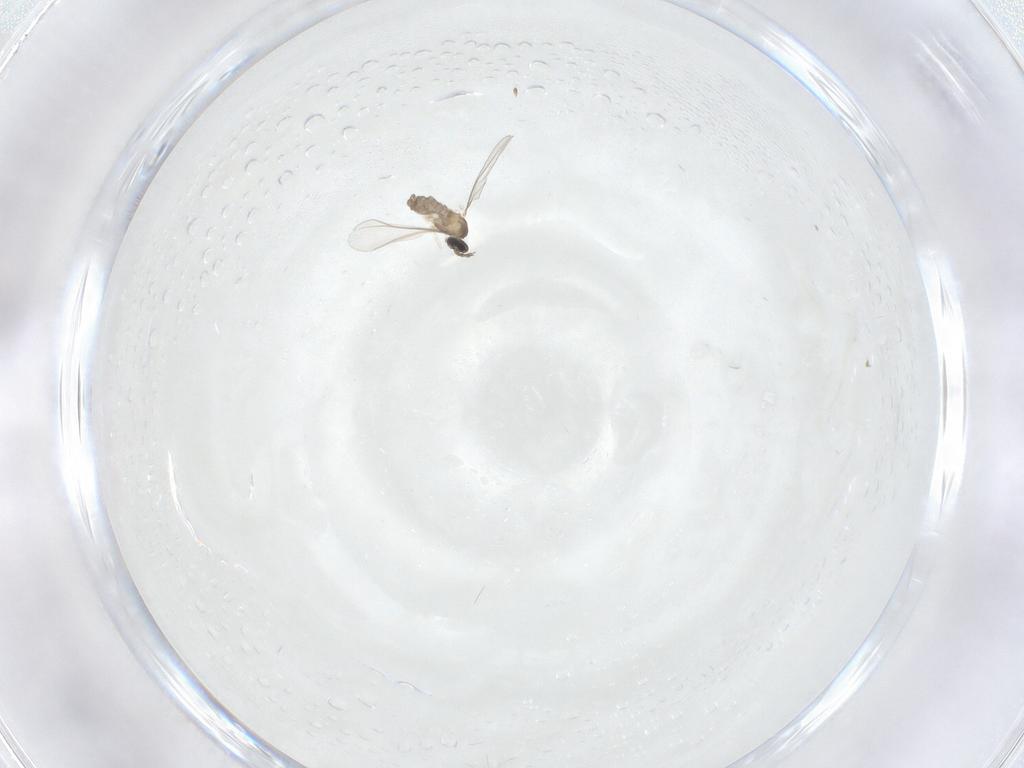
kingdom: Animalia
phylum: Arthropoda
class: Insecta
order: Diptera
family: Cecidomyiidae
